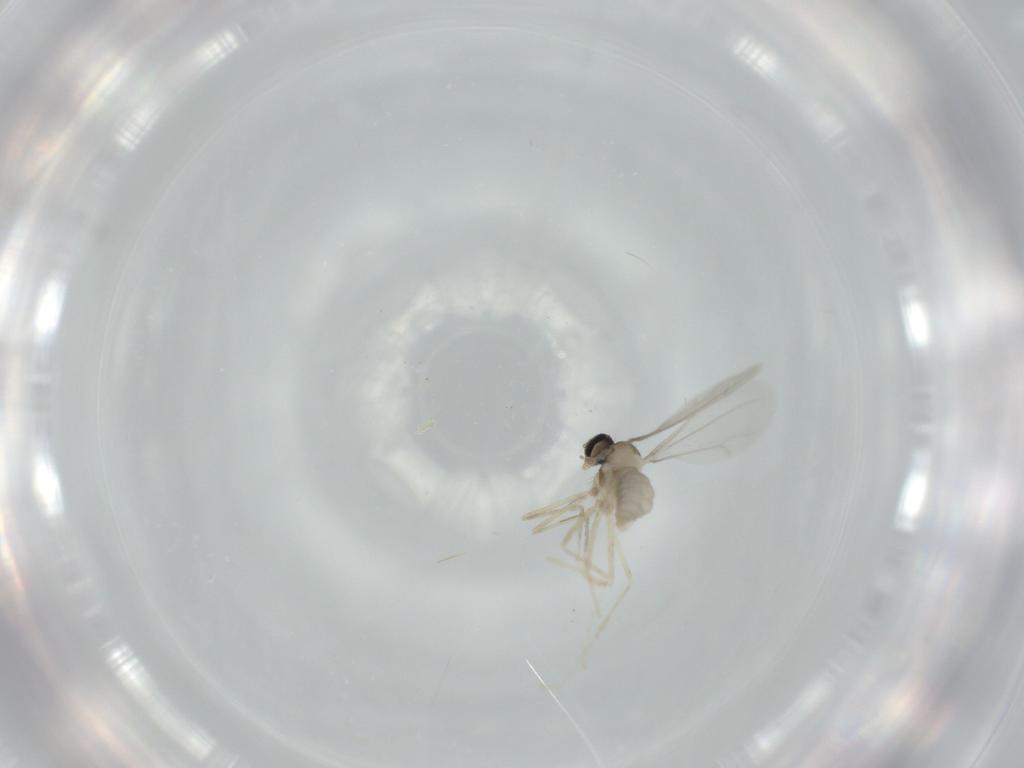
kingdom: Animalia
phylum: Arthropoda
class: Insecta
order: Diptera
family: Cecidomyiidae
